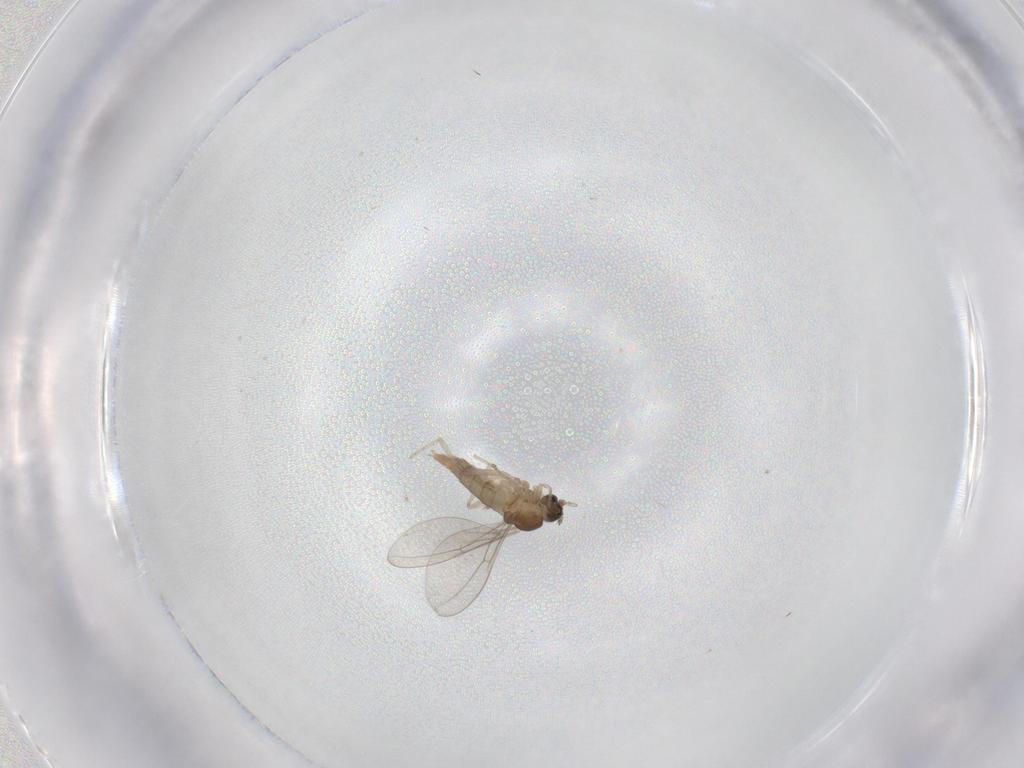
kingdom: Animalia
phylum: Arthropoda
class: Insecta
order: Diptera
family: Cecidomyiidae
